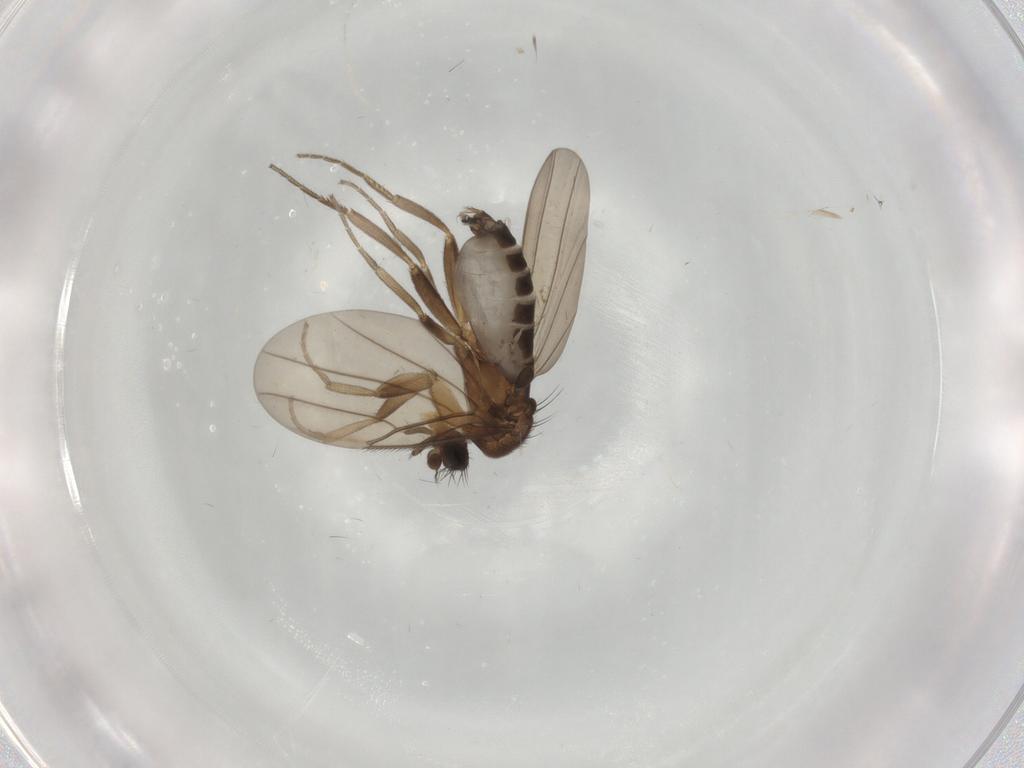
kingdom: Animalia
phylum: Arthropoda
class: Insecta
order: Diptera
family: Phoridae
